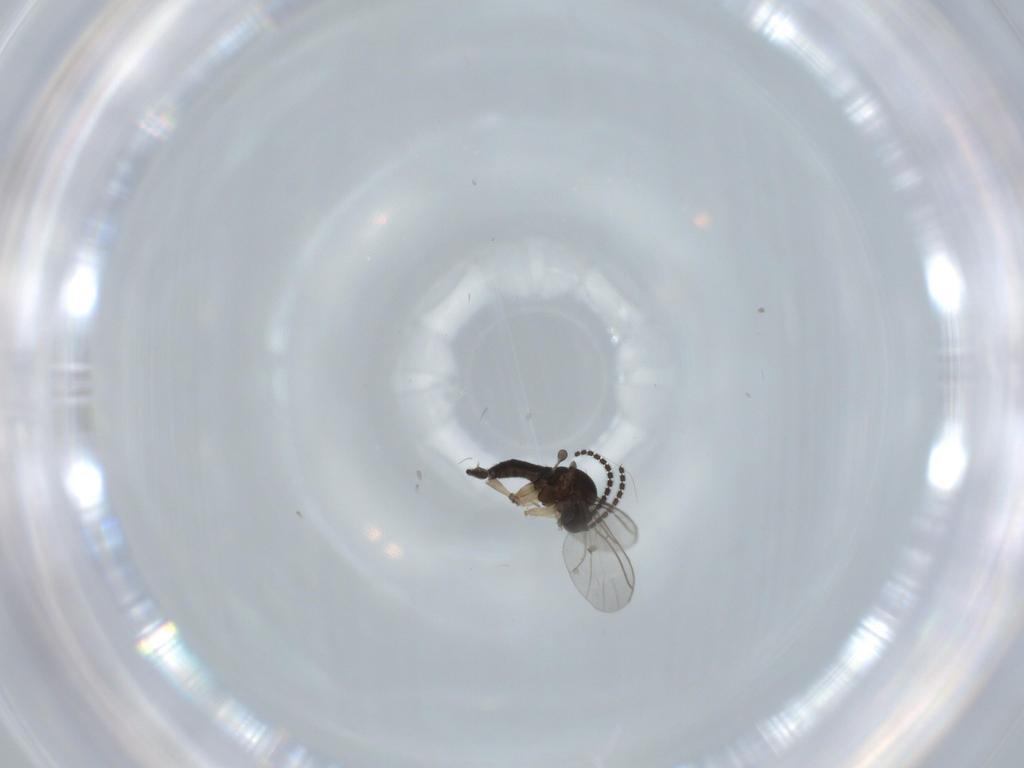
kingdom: Animalia
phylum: Arthropoda
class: Insecta
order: Diptera
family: Sciaridae
